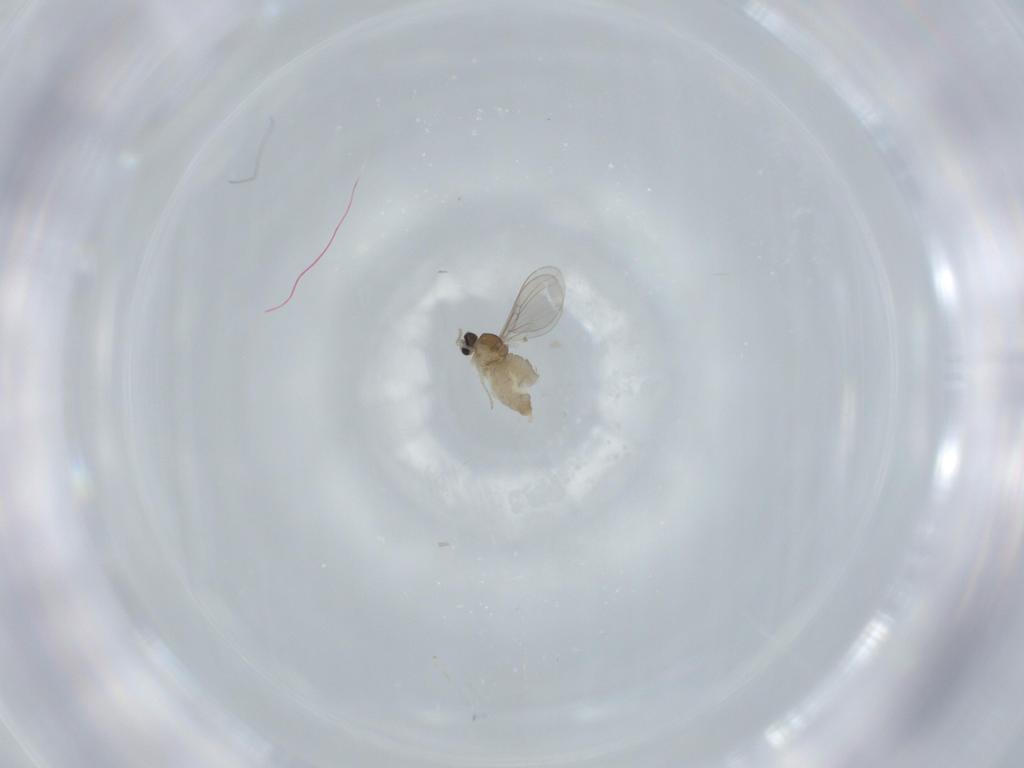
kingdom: Animalia
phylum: Arthropoda
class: Insecta
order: Diptera
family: Cecidomyiidae
